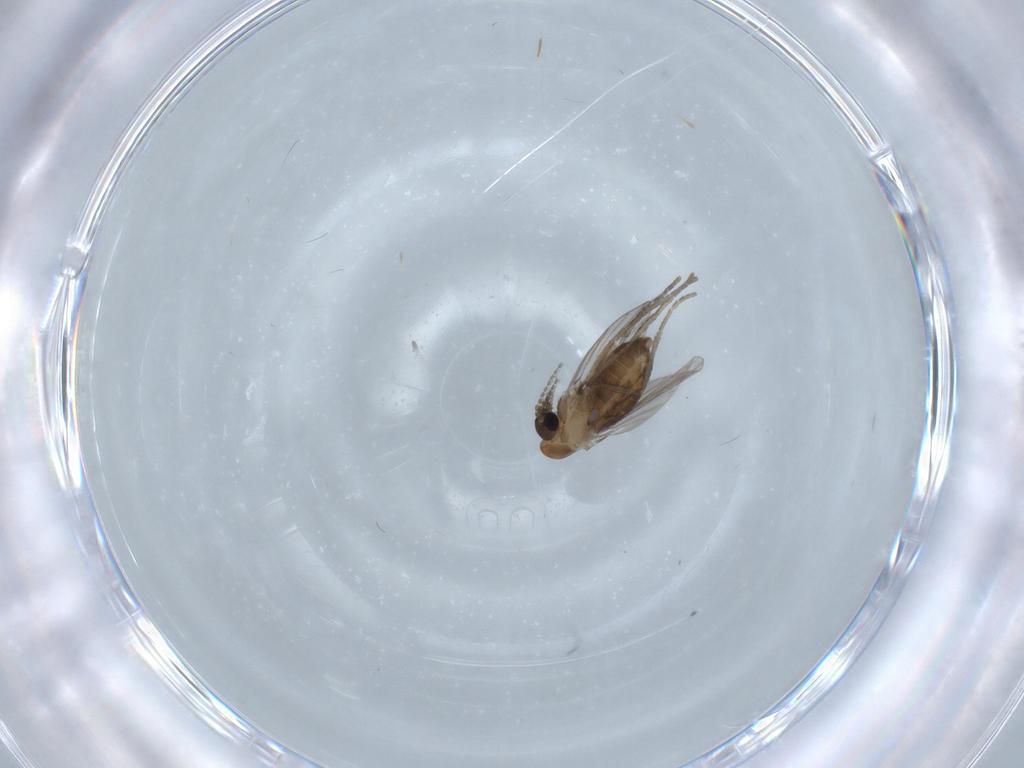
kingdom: Animalia
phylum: Arthropoda
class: Insecta
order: Diptera
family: Psychodidae
